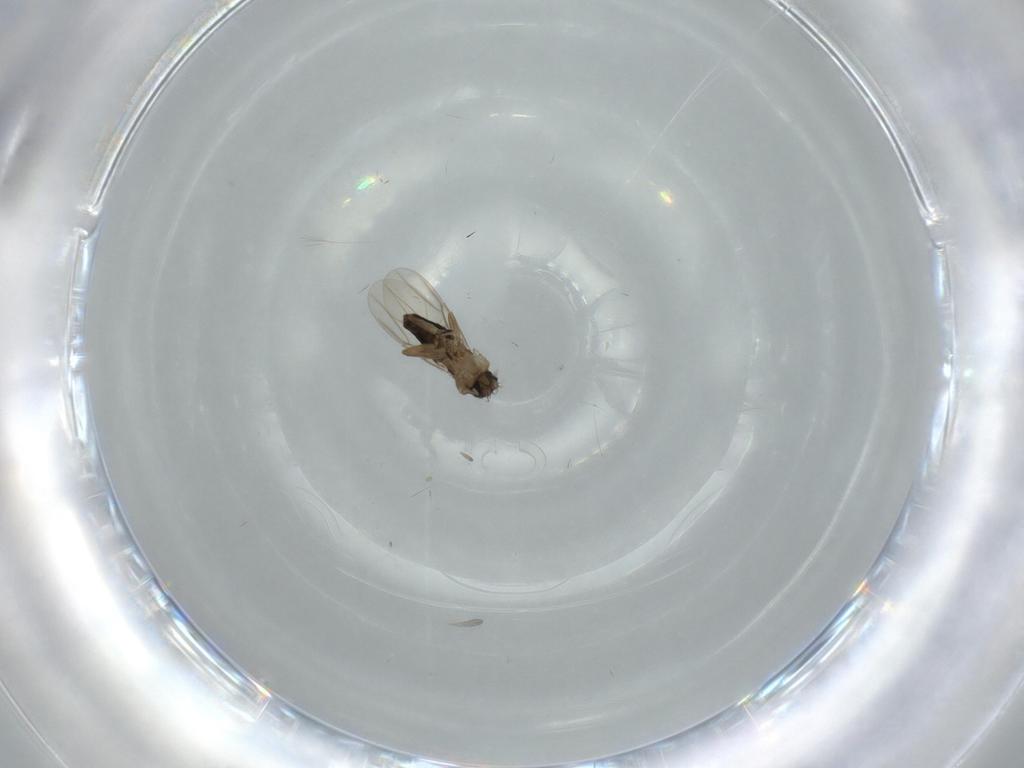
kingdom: Animalia
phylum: Arthropoda
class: Insecta
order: Diptera
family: Phoridae
